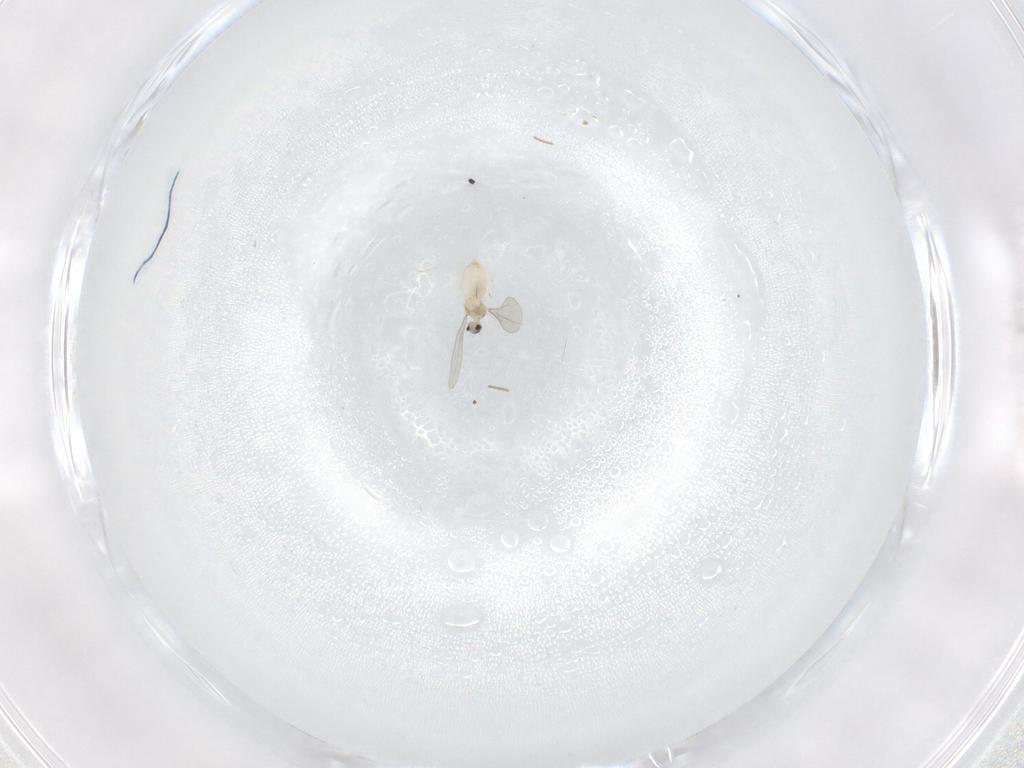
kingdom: Animalia
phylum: Arthropoda
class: Insecta
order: Diptera
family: Cecidomyiidae
